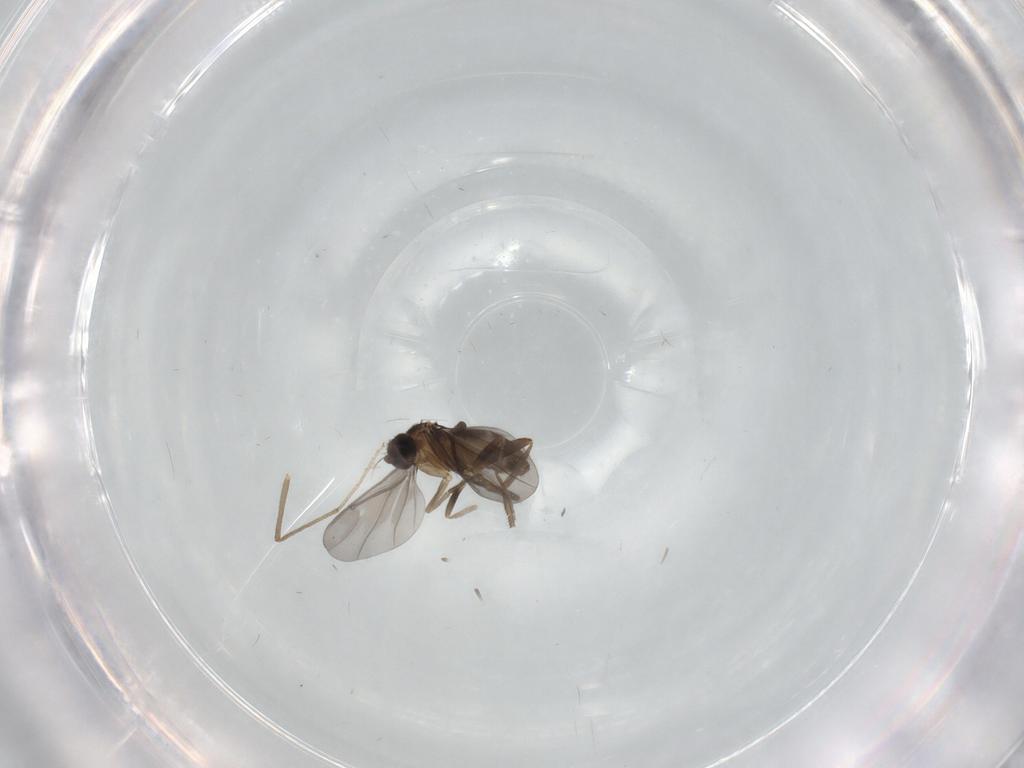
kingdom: Animalia
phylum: Arthropoda
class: Insecta
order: Diptera
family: Phoridae
